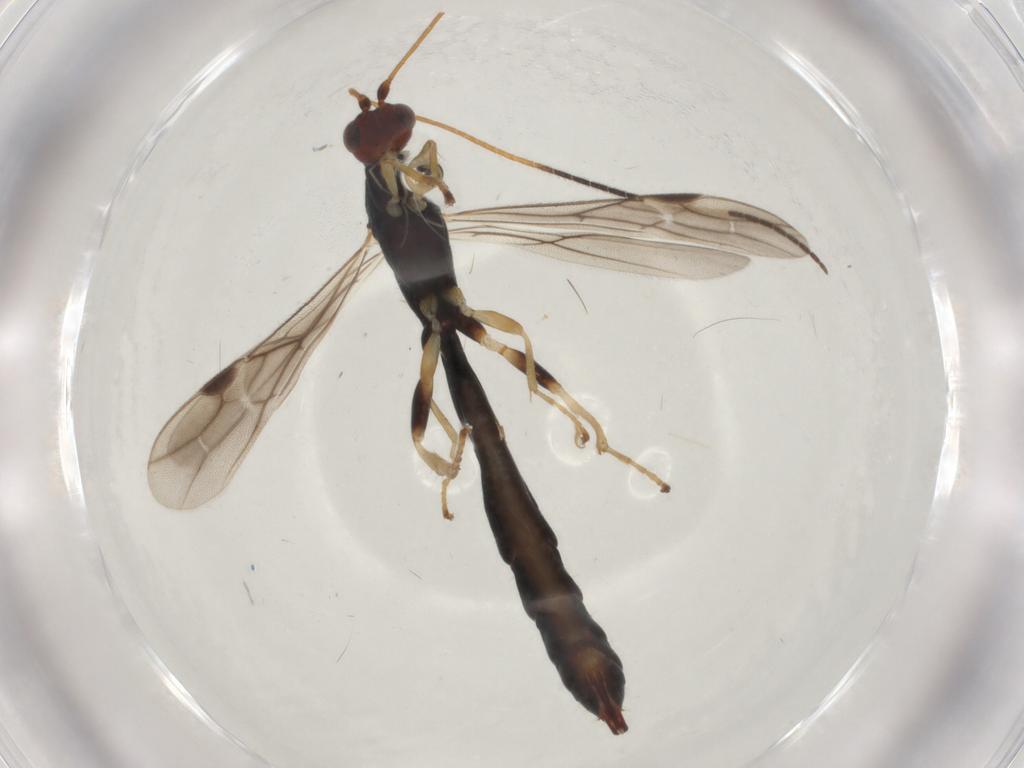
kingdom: Animalia
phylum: Arthropoda
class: Insecta
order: Hymenoptera
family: Braconidae
